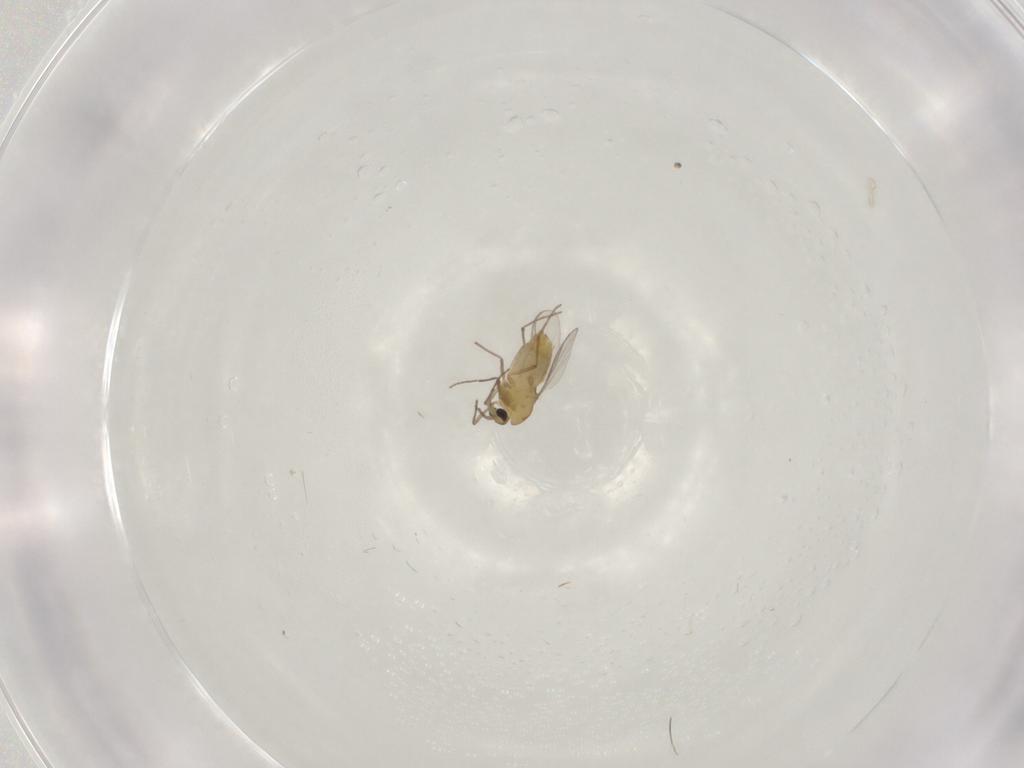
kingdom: Animalia
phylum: Arthropoda
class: Insecta
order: Diptera
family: Chironomidae
